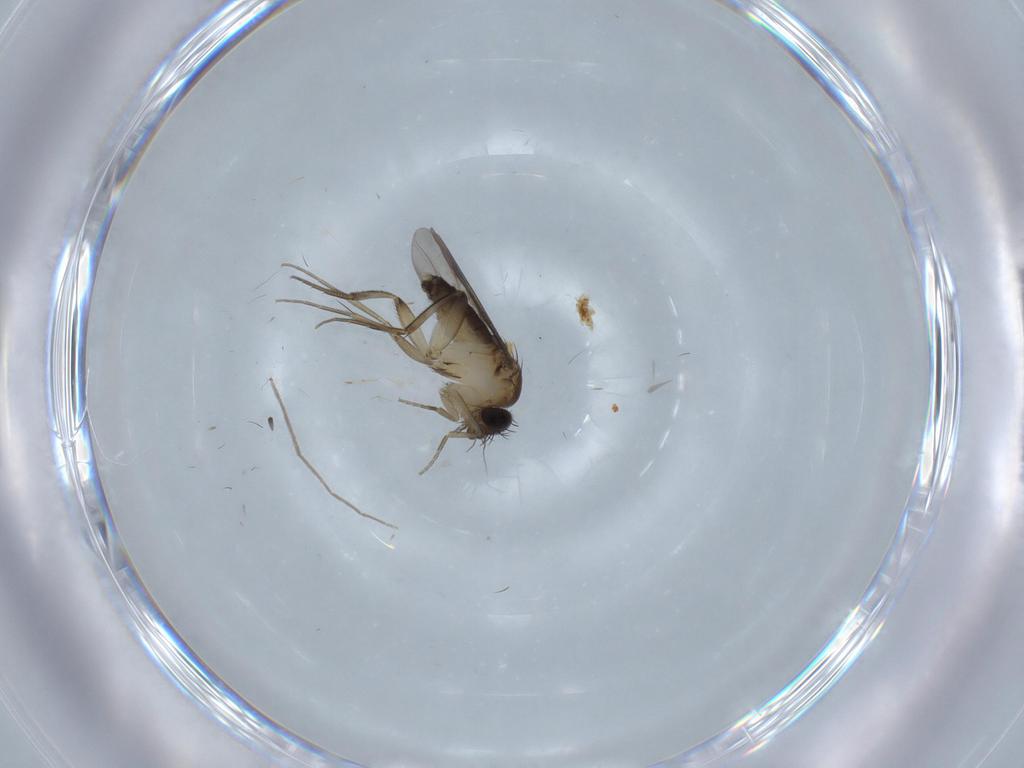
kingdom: Animalia
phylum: Arthropoda
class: Insecta
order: Diptera
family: Phoridae
